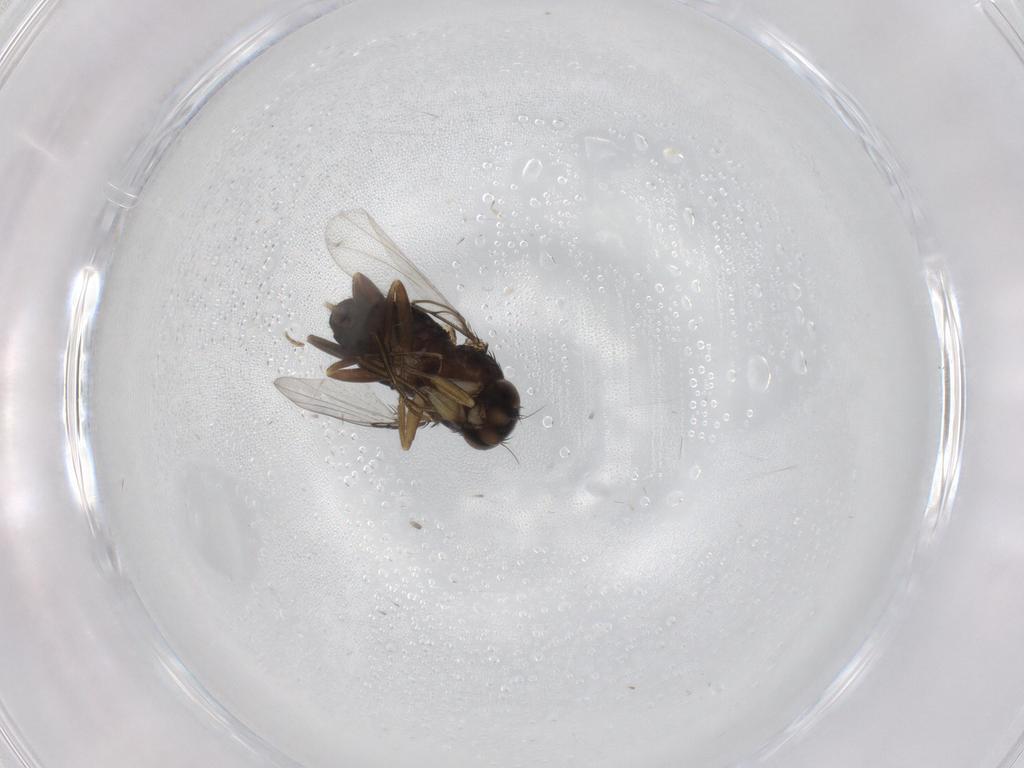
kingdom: Animalia
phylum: Arthropoda
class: Insecta
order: Diptera
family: Phoridae
